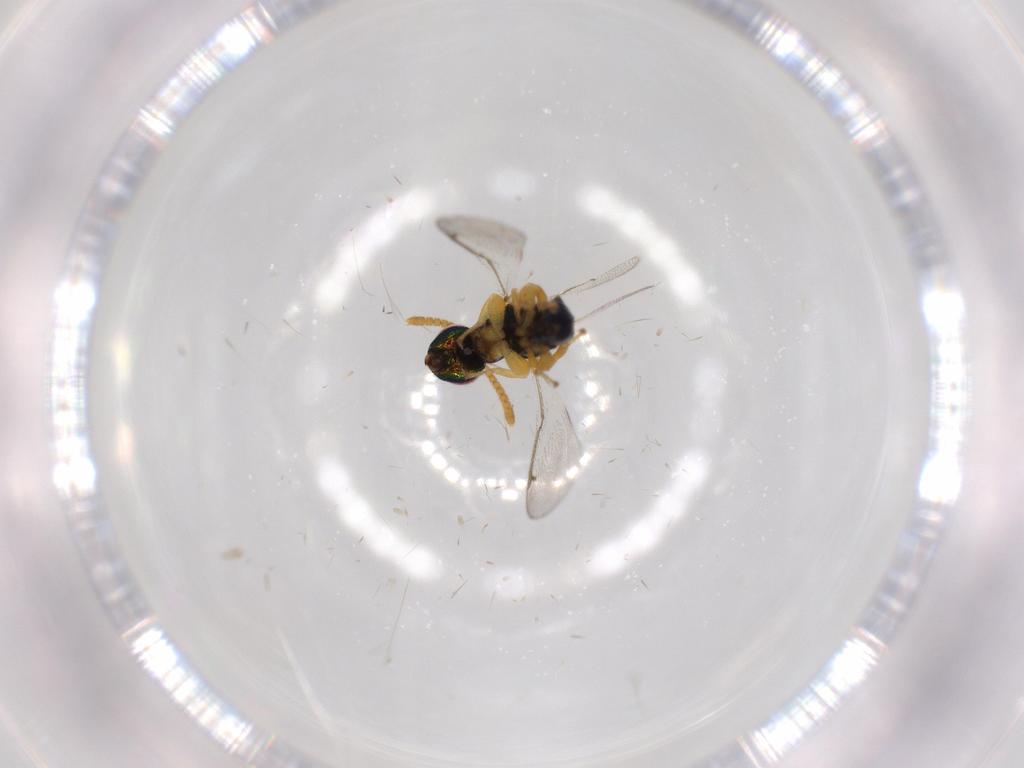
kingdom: Animalia
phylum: Arthropoda
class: Insecta
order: Hymenoptera
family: Torymidae
